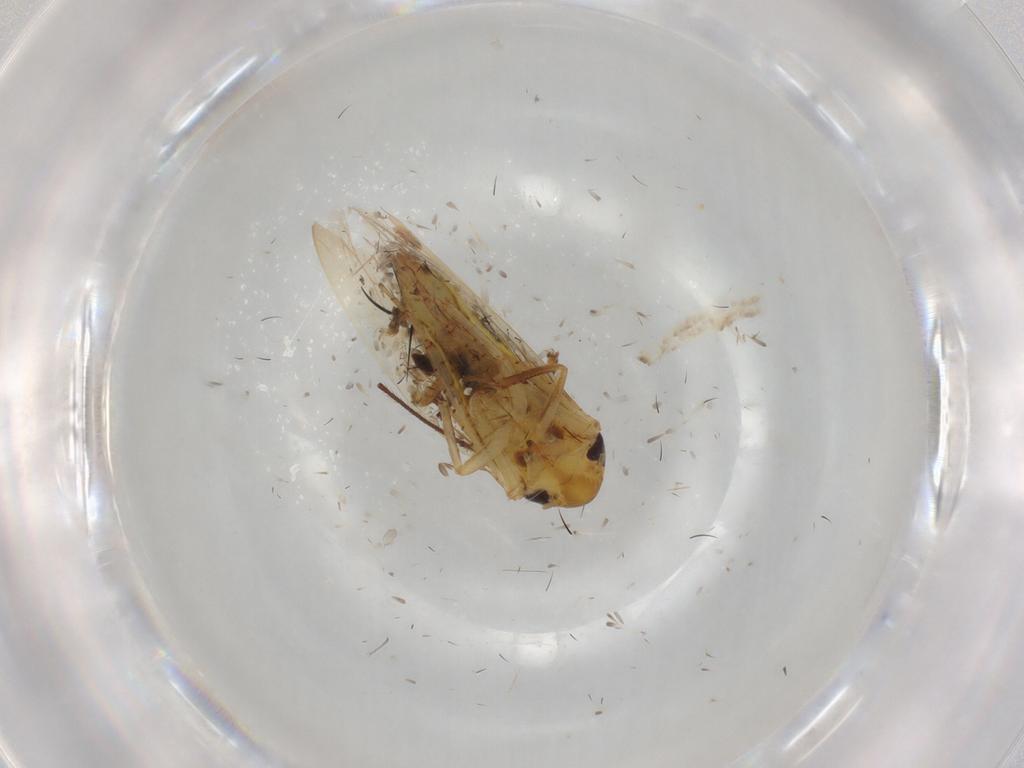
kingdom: Animalia
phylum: Arthropoda
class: Insecta
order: Hemiptera
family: Cicadellidae
